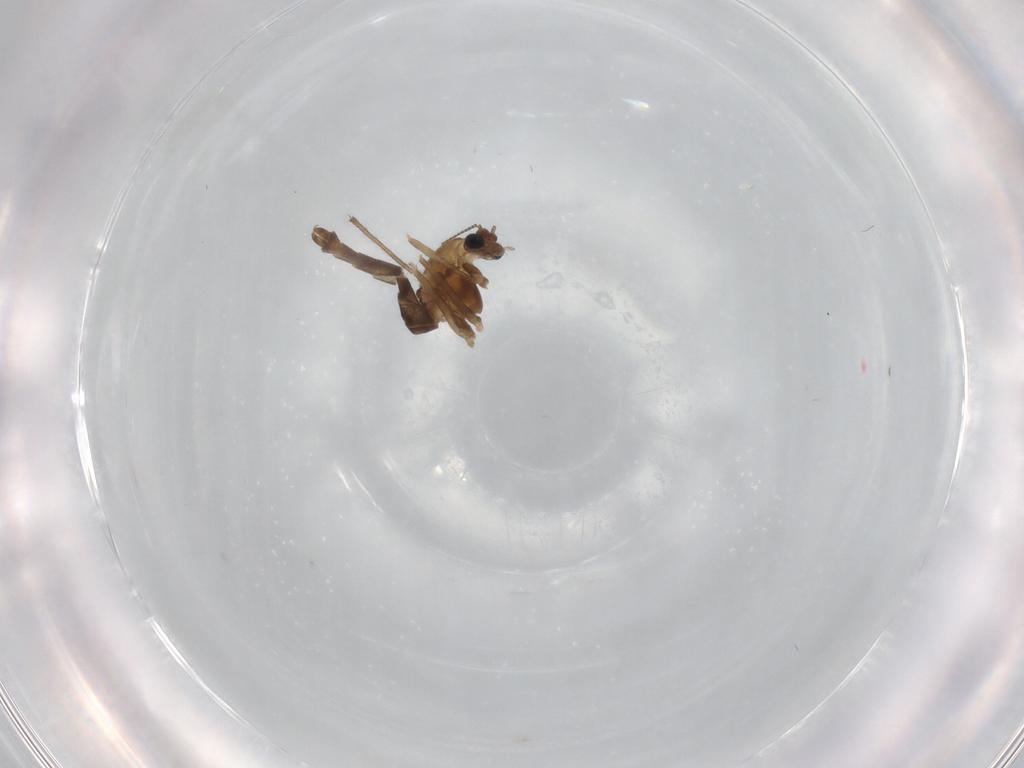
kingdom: Animalia
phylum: Arthropoda
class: Insecta
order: Diptera
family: Chironomidae
